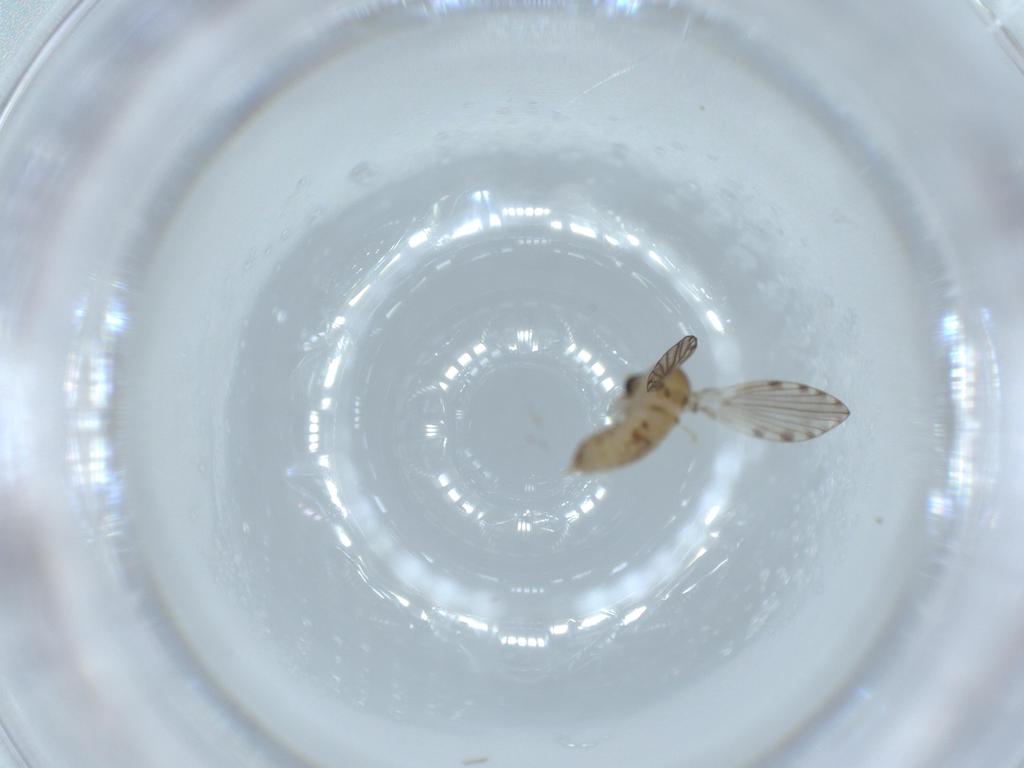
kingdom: Animalia
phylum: Arthropoda
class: Insecta
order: Diptera
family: Psychodidae
